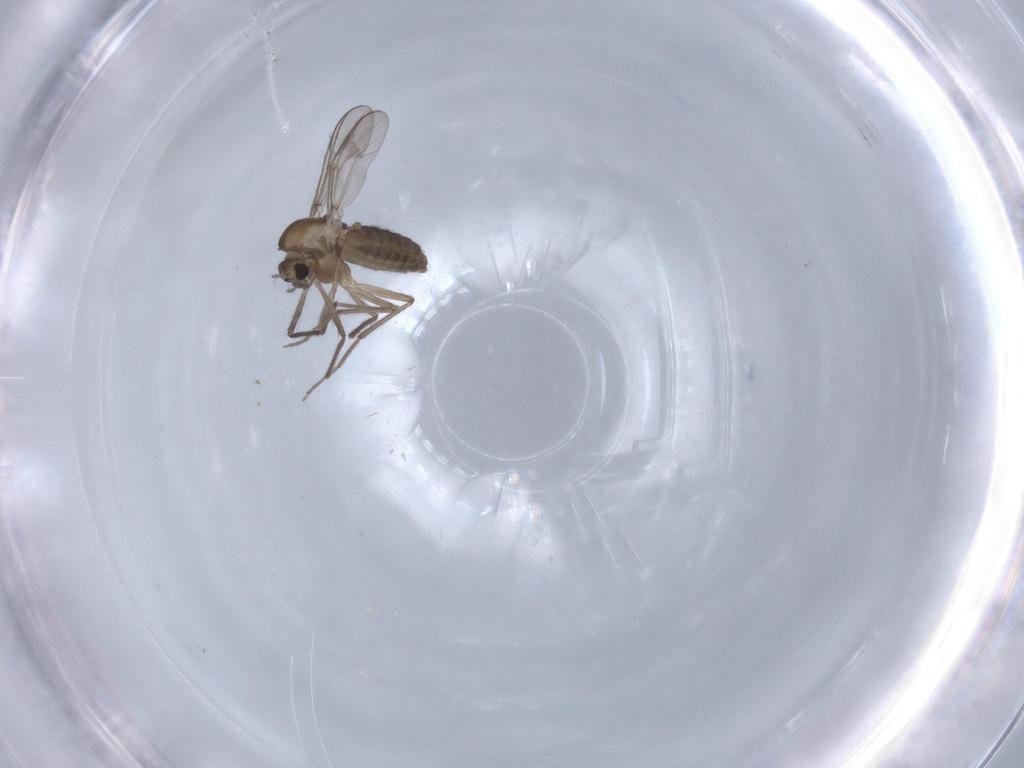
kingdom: Animalia
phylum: Arthropoda
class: Insecta
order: Diptera
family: Chironomidae
